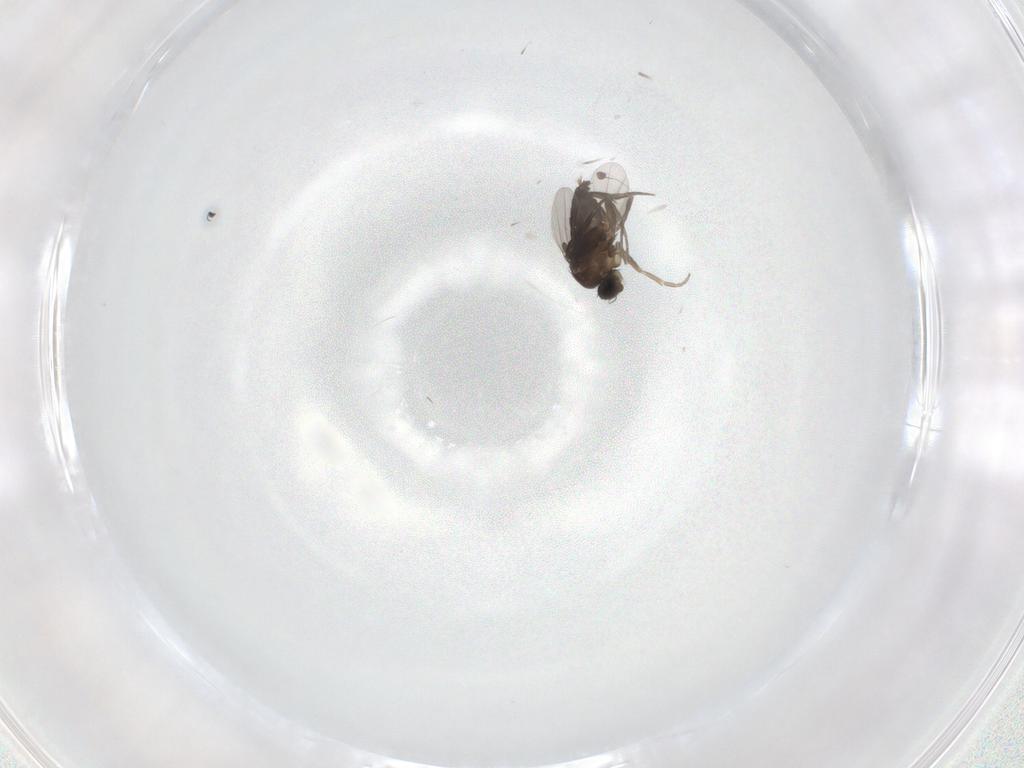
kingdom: Animalia
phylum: Arthropoda
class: Insecta
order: Diptera
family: Phoridae
